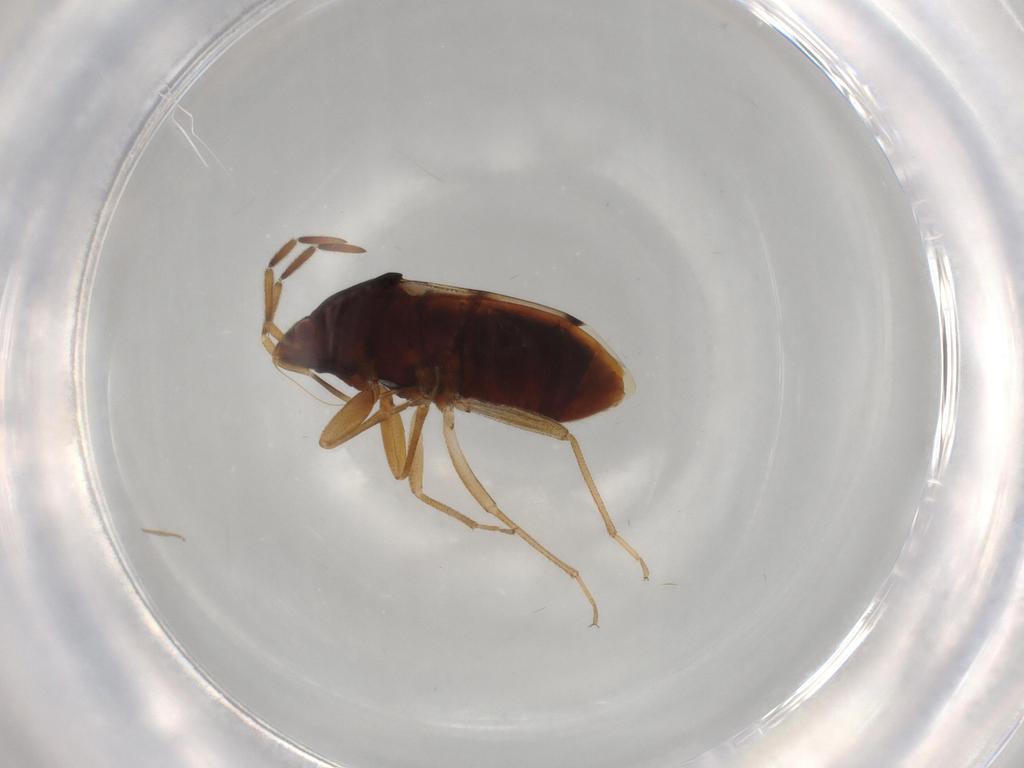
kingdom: Animalia
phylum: Arthropoda
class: Insecta
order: Hemiptera
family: Rhyparochromidae
